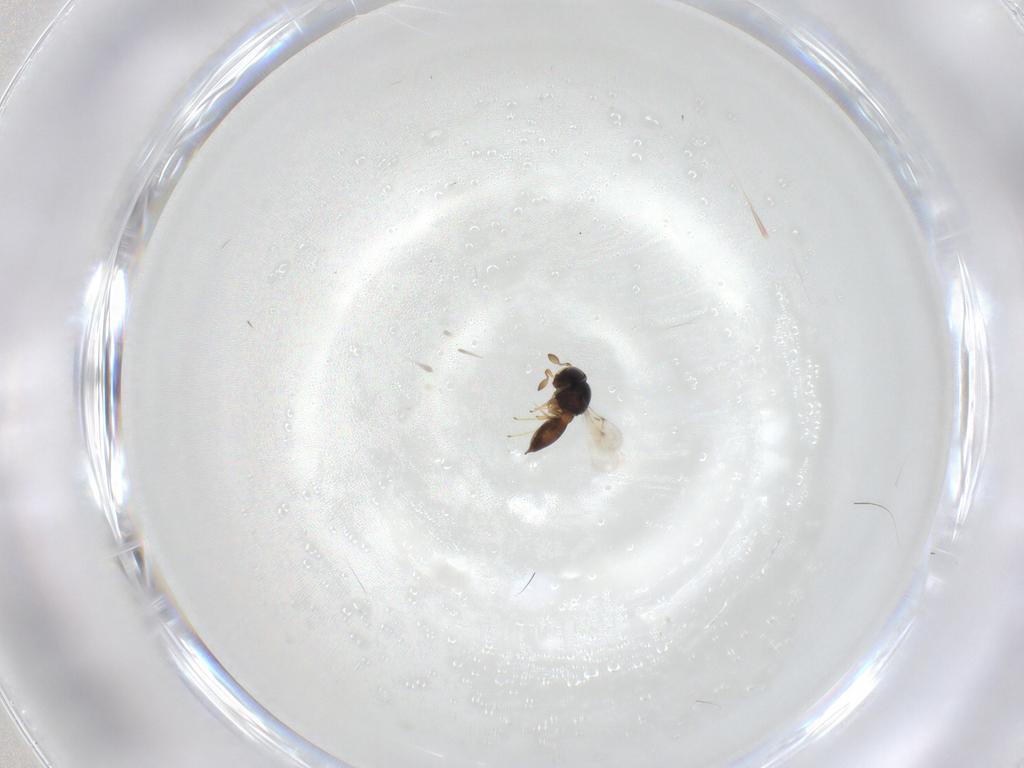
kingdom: Animalia
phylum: Arthropoda
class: Insecta
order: Hymenoptera
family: Scelionidae
